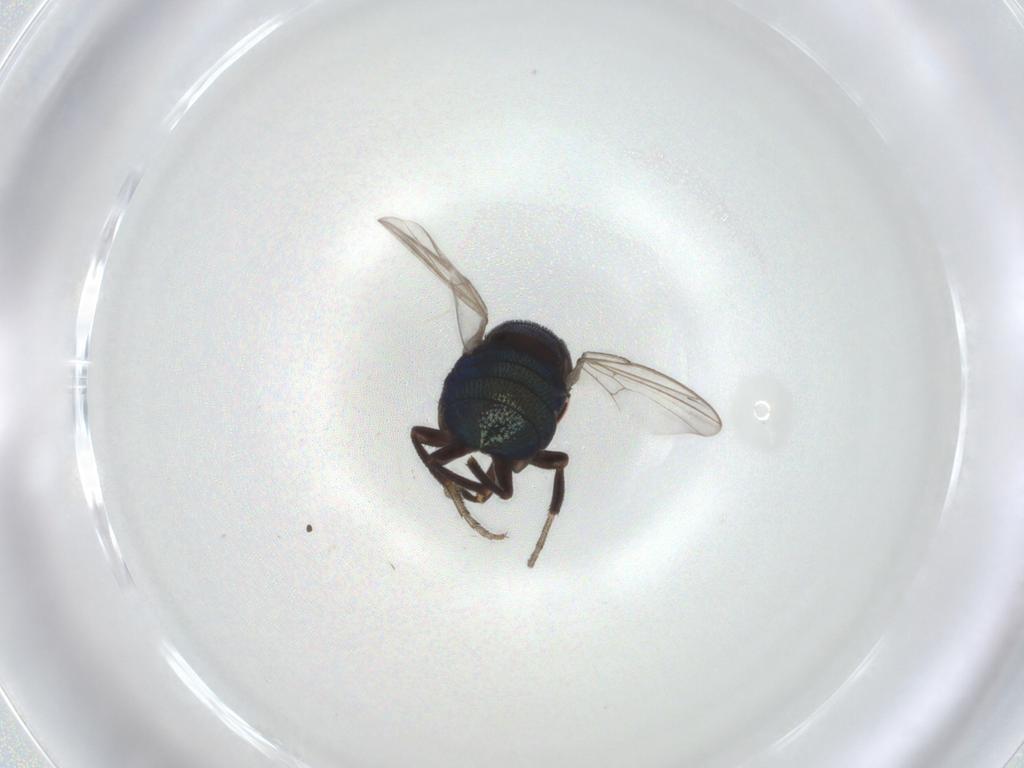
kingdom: Animalia
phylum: Arthropoda
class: Insecta
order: Diptera
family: Cryptochetidae
